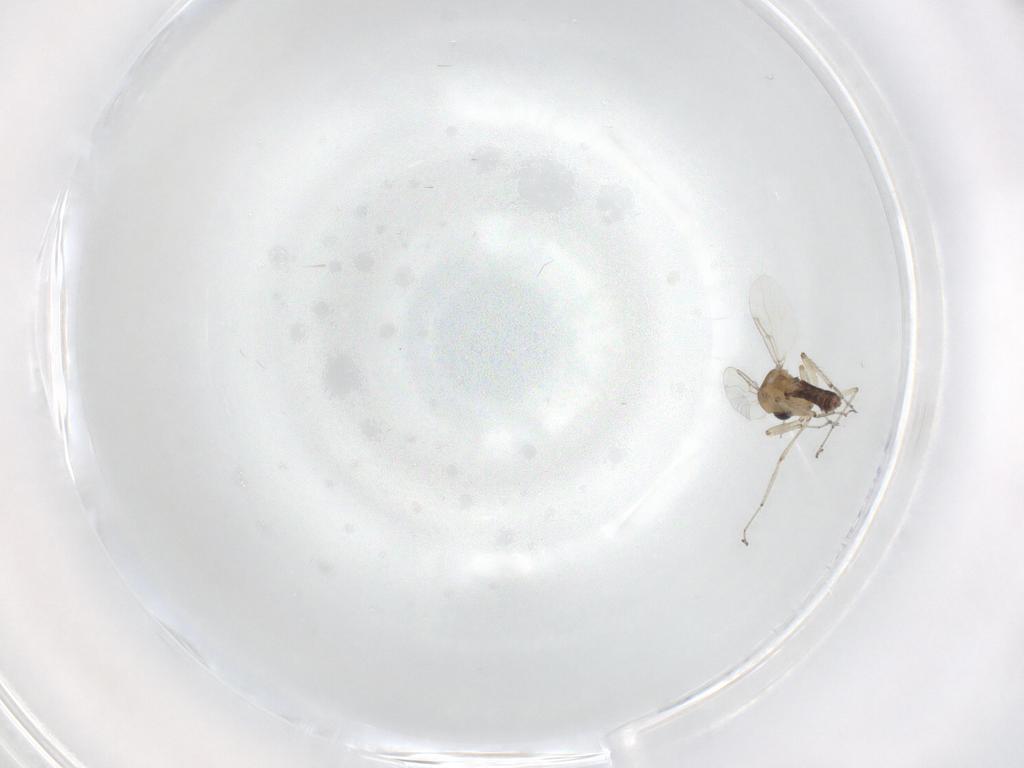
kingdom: Animalia
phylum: Arthropoda
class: Insecta
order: Diptera
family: Ceratopogonidae
